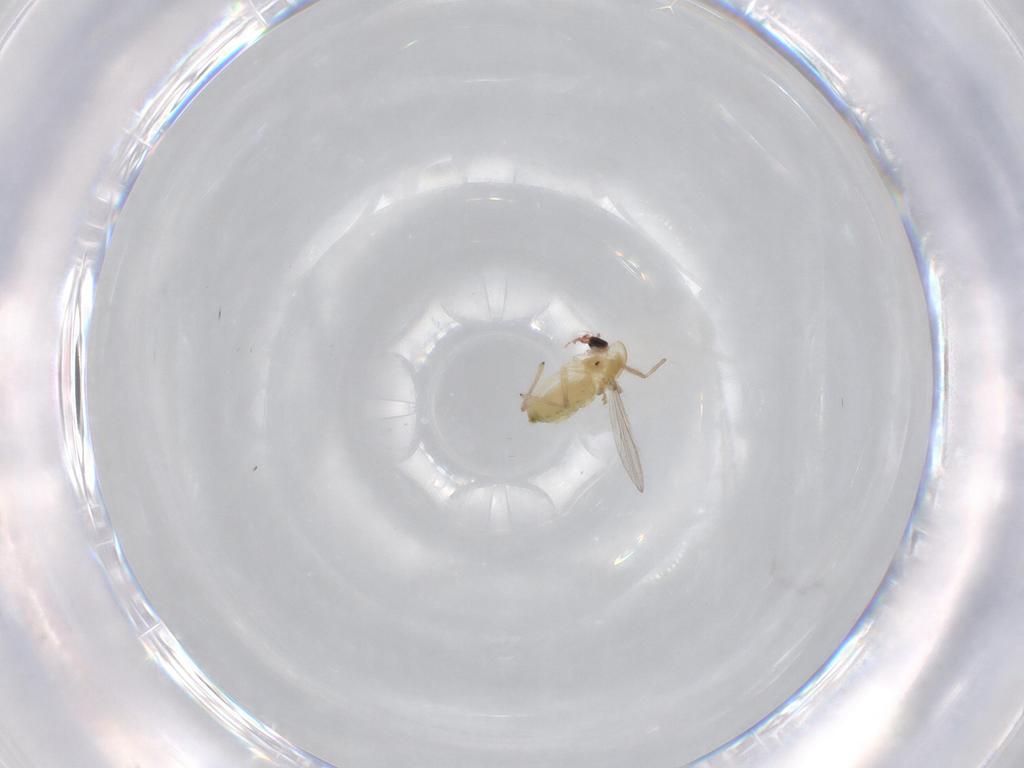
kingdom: Animalia
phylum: Arthropoda
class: Insecta
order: Diptera
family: Chironomidae
